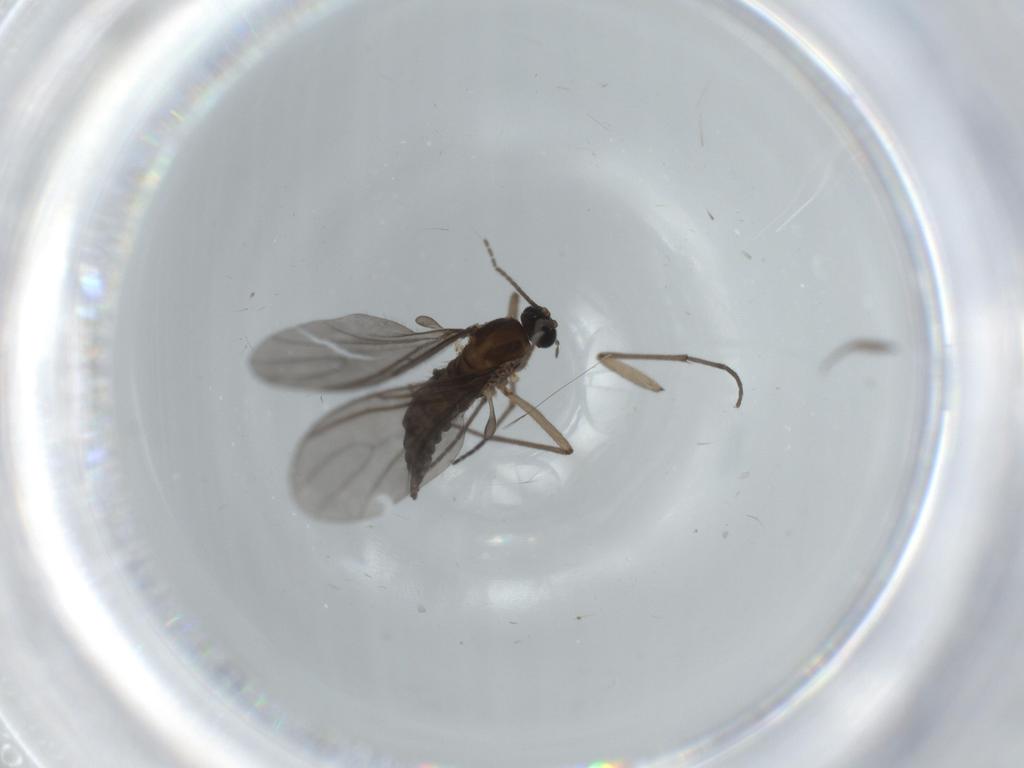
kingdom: Animalia
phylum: Arthropoda
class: Insecta
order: Diptera
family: Sciaridae
